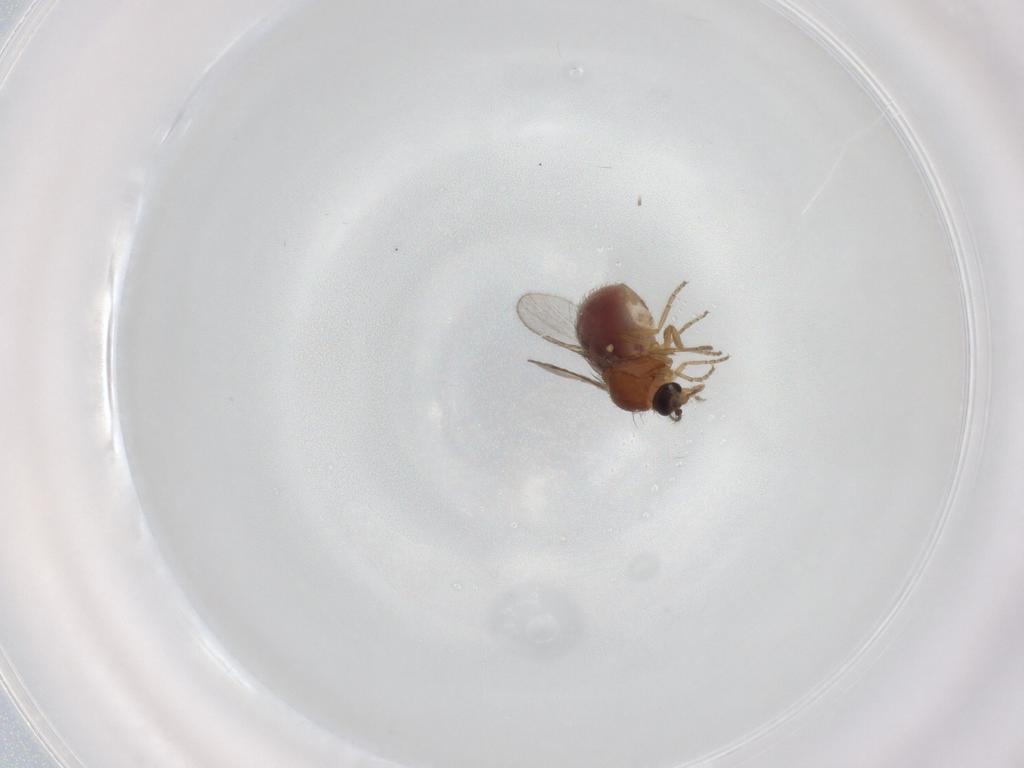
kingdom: Animalia
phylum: Arthropoda
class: Insecta
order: Diptera
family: Ceratopogonidae
